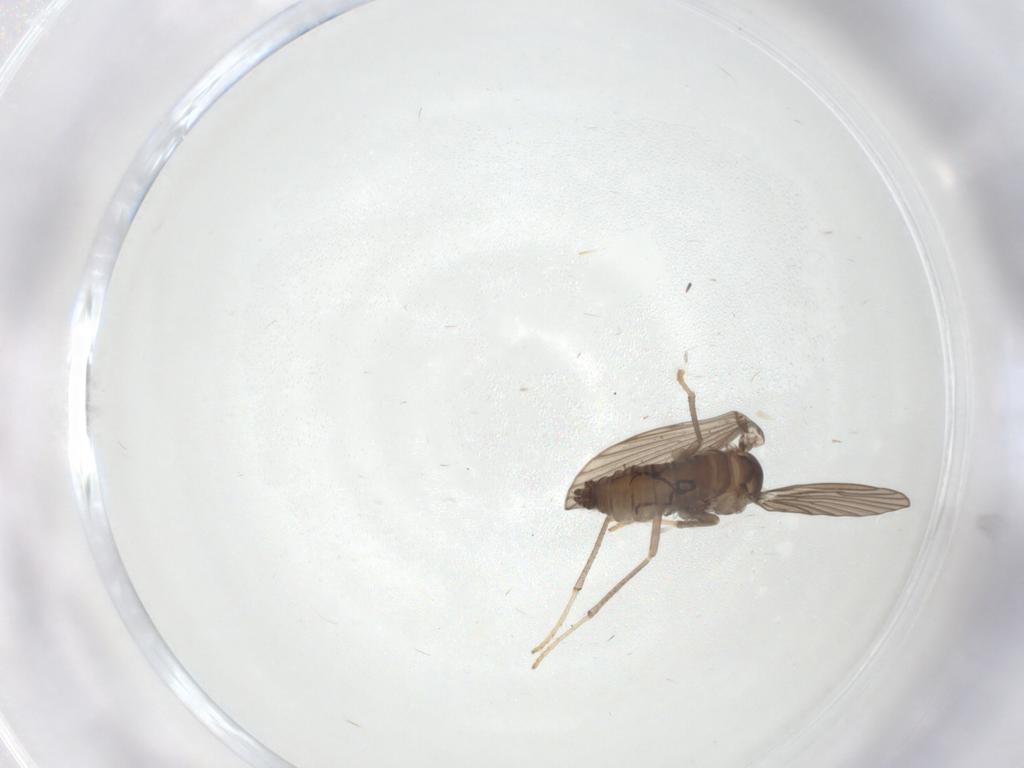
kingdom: Animalia
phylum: Arthropoda
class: Insecta
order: Diptera
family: Psychodidae
